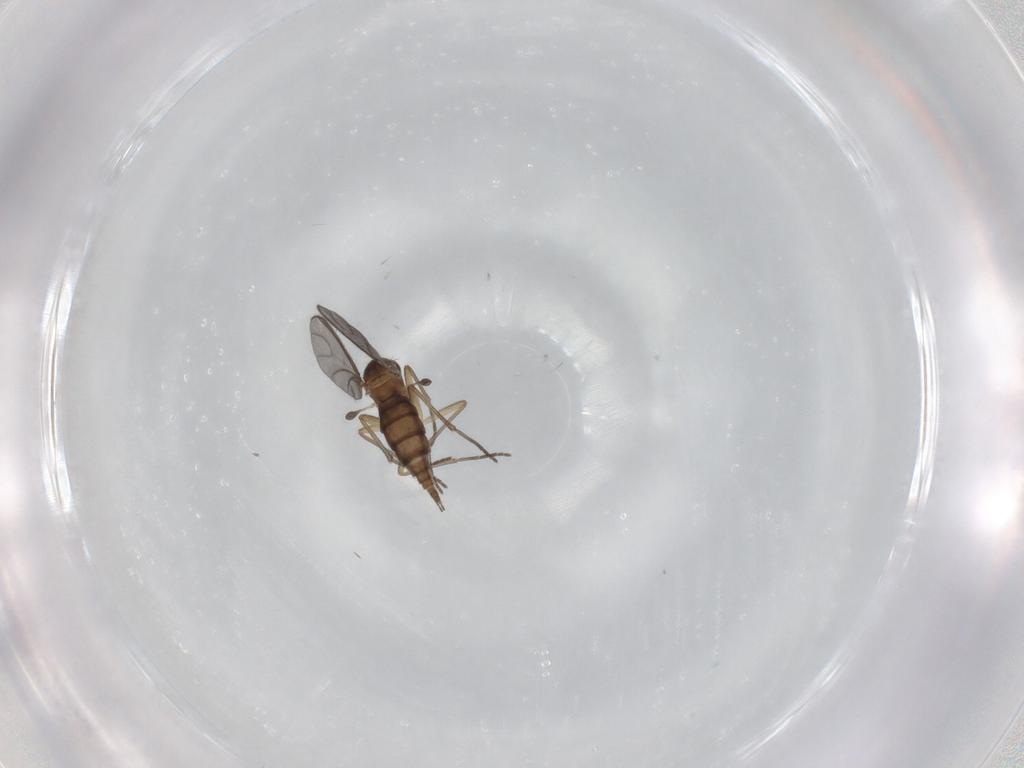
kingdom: Animalia
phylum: Arthropoda
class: Insecta
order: Diptera
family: Sciaridae
